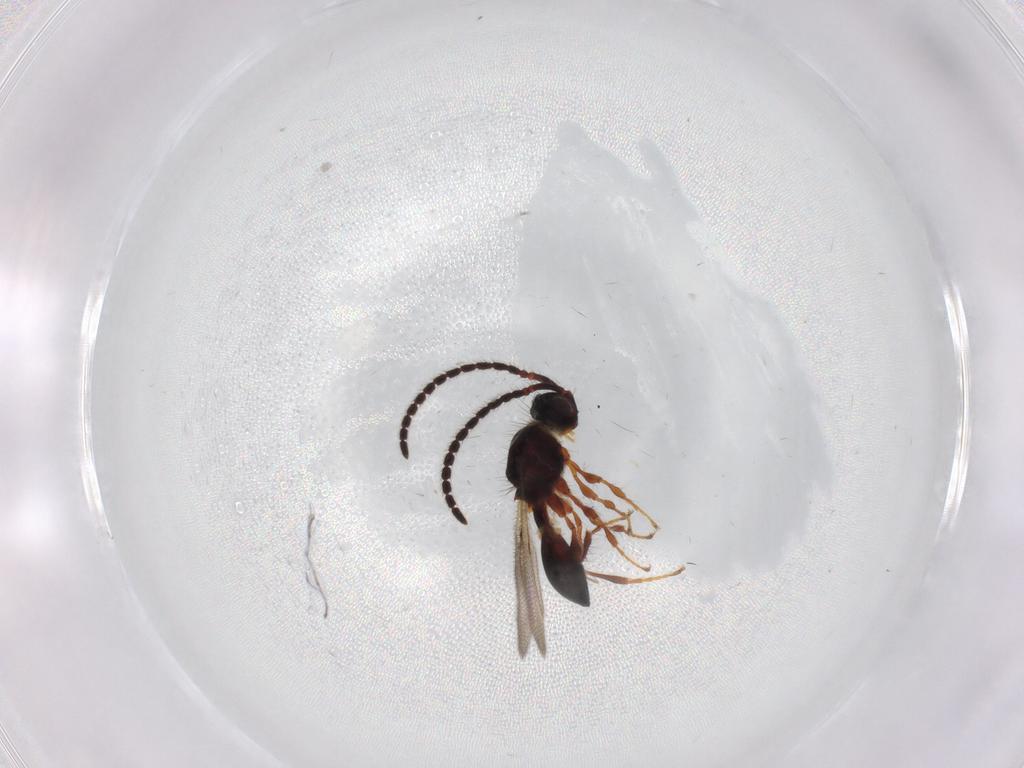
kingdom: Animalia
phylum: Arthropoda
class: Insecta
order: Hymenoptera
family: Diapriidae
